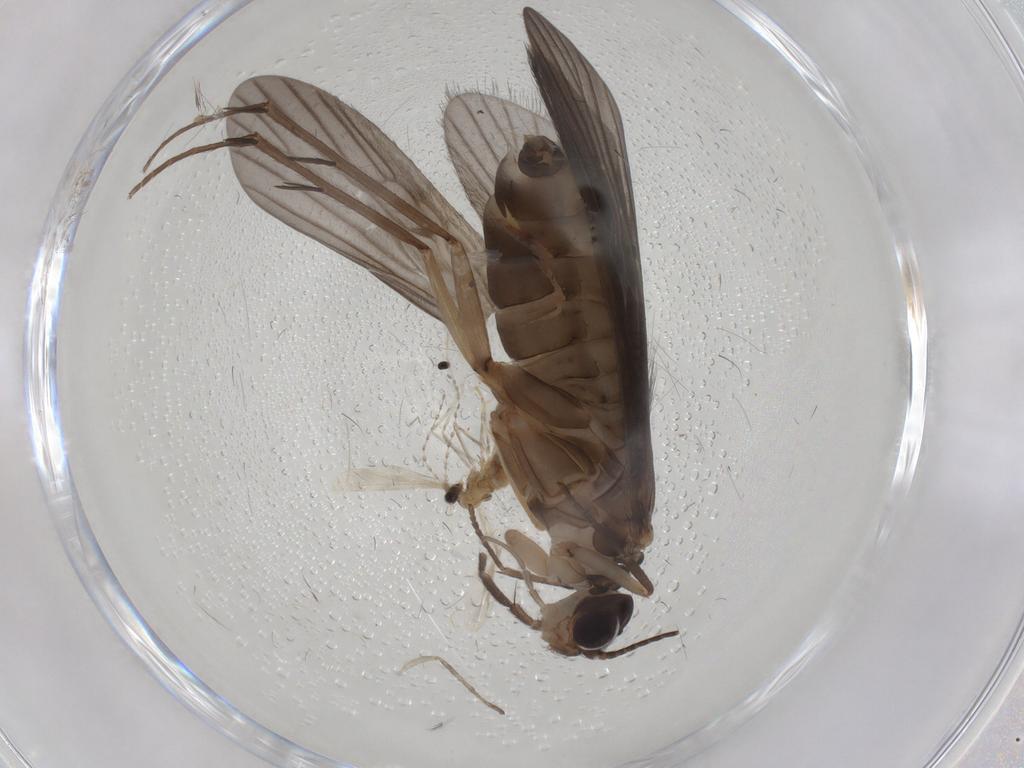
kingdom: Animalia
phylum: Arthropoda
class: Insecta
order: Trichoptera
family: Philopotamidae
